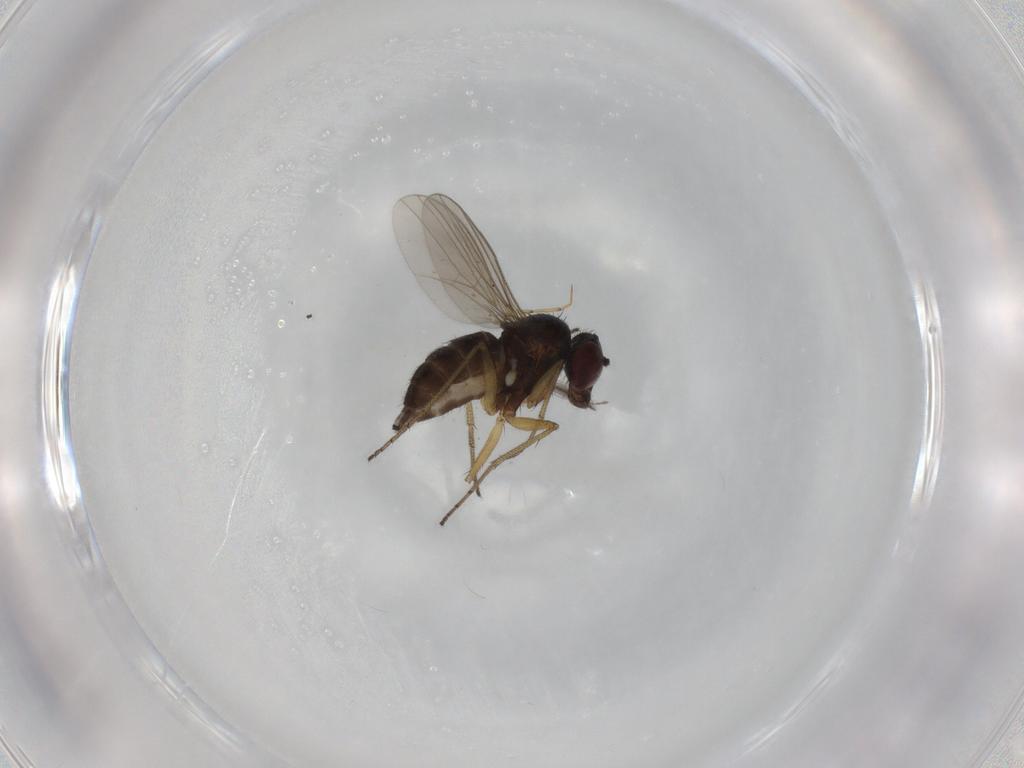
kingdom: Animalia
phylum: Arthropoda
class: Insecta
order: Diptera
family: Dolichopodidae
